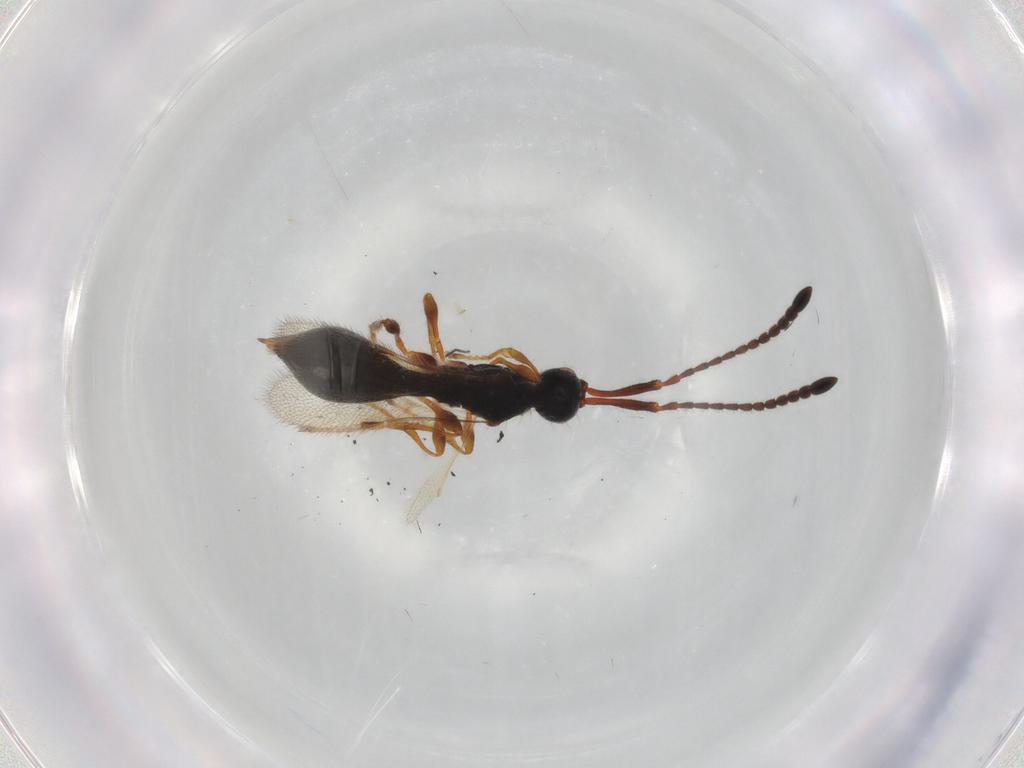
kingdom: Animalia
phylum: Arthropoda
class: Insecta
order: Hymenoptera
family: Diapriidae
